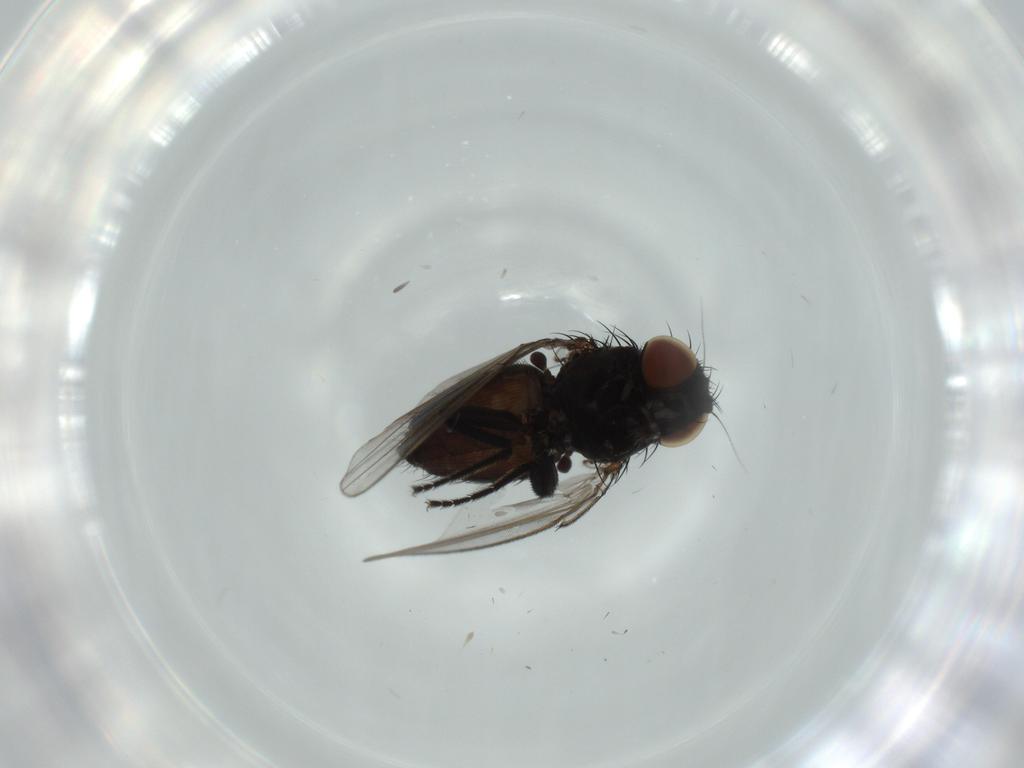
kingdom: Animalia
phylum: Arthropoda
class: Insecta
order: Diptera
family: Milichiidae
